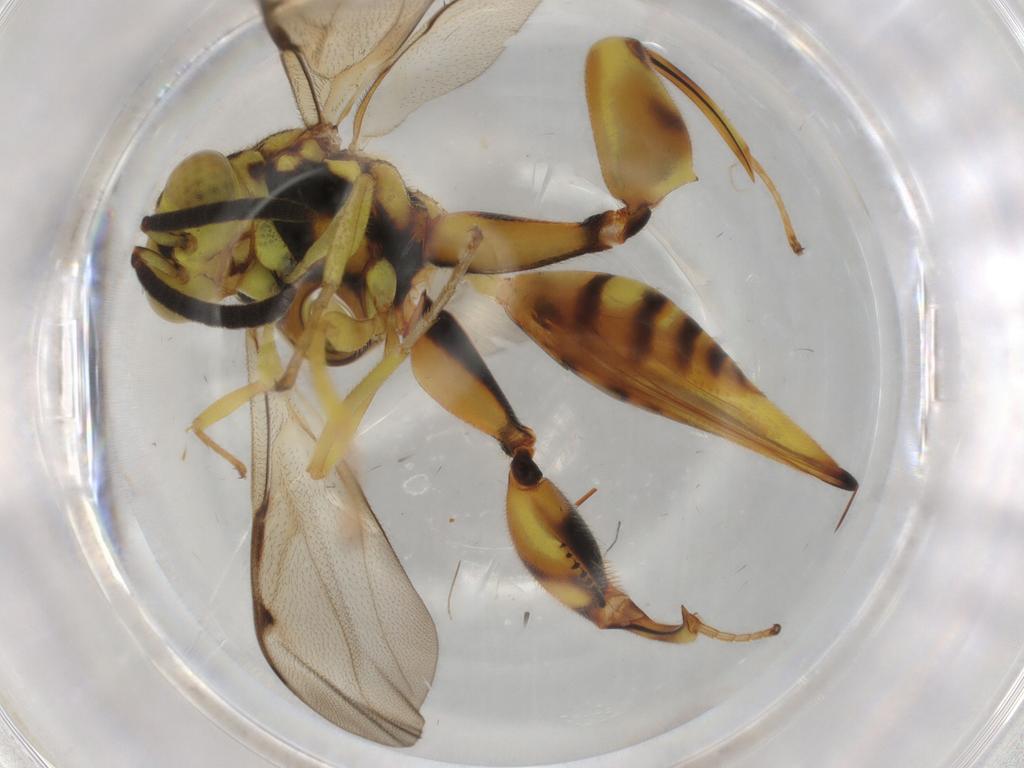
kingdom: Animalia
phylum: Arthropoda
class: Insecta
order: Hymenoptera
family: Chalcididae
